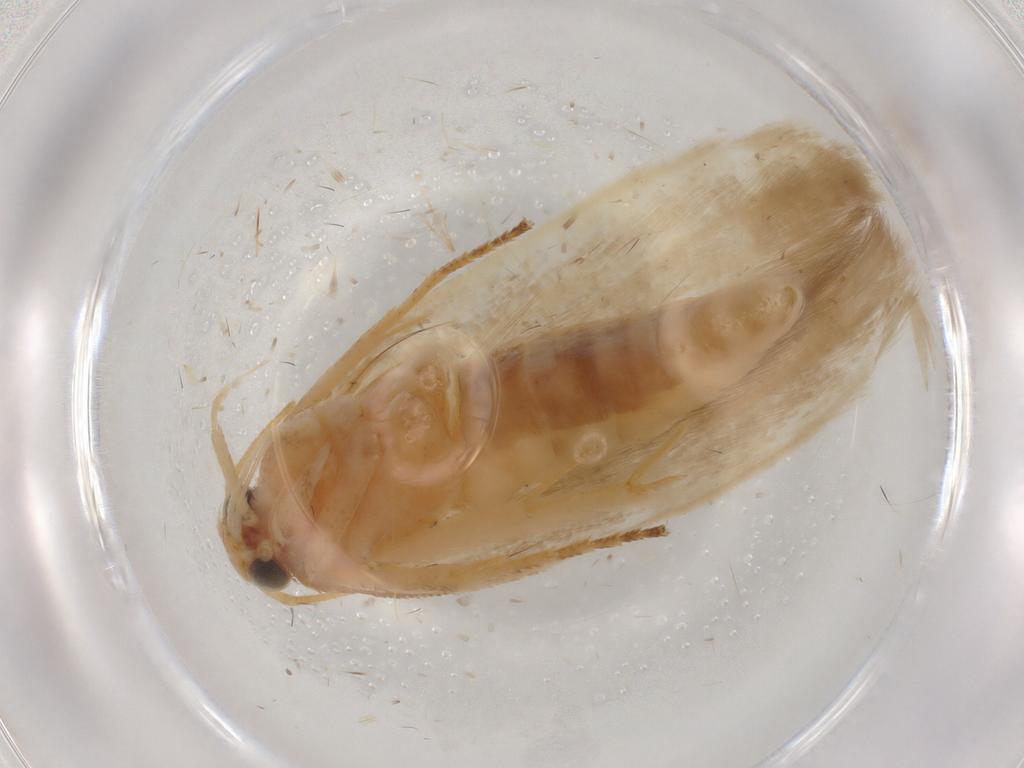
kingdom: Animalia
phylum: Arthropoda
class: Insecta
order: Lepidoptera
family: Gelechiidae
